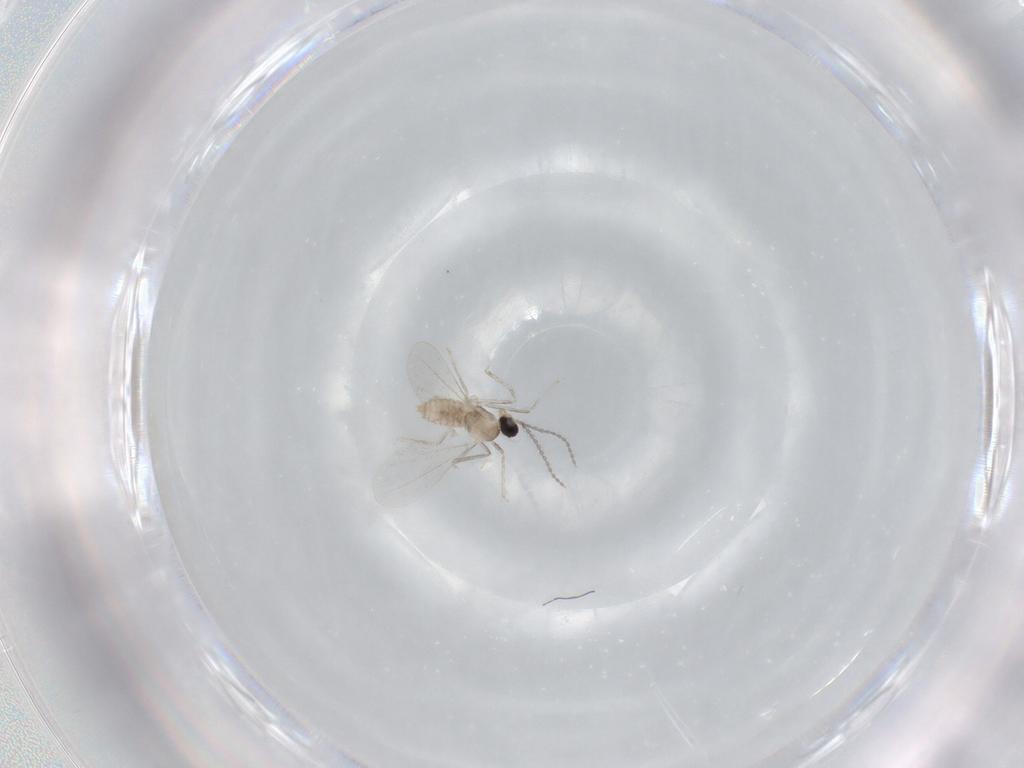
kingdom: Animalia
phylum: Arthropoda
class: Insecta
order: Diptera
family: Cecidomyiidae
